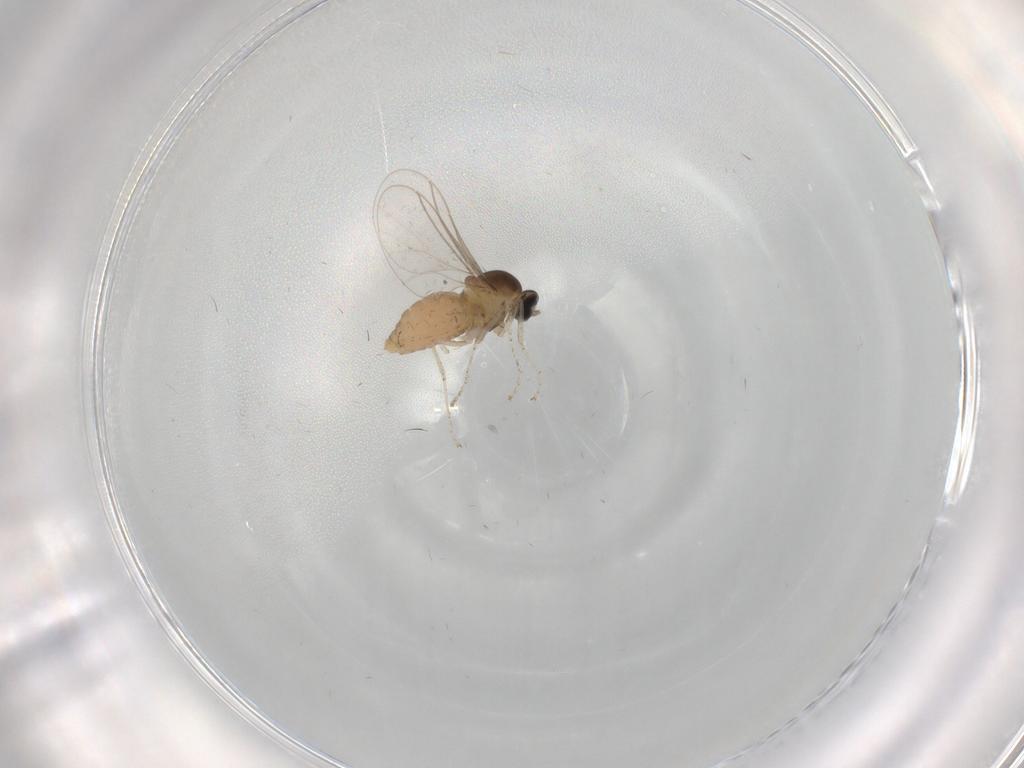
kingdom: Animalia
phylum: Arthropoda
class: Insecta
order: Diptera
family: Cecidomyiidae
